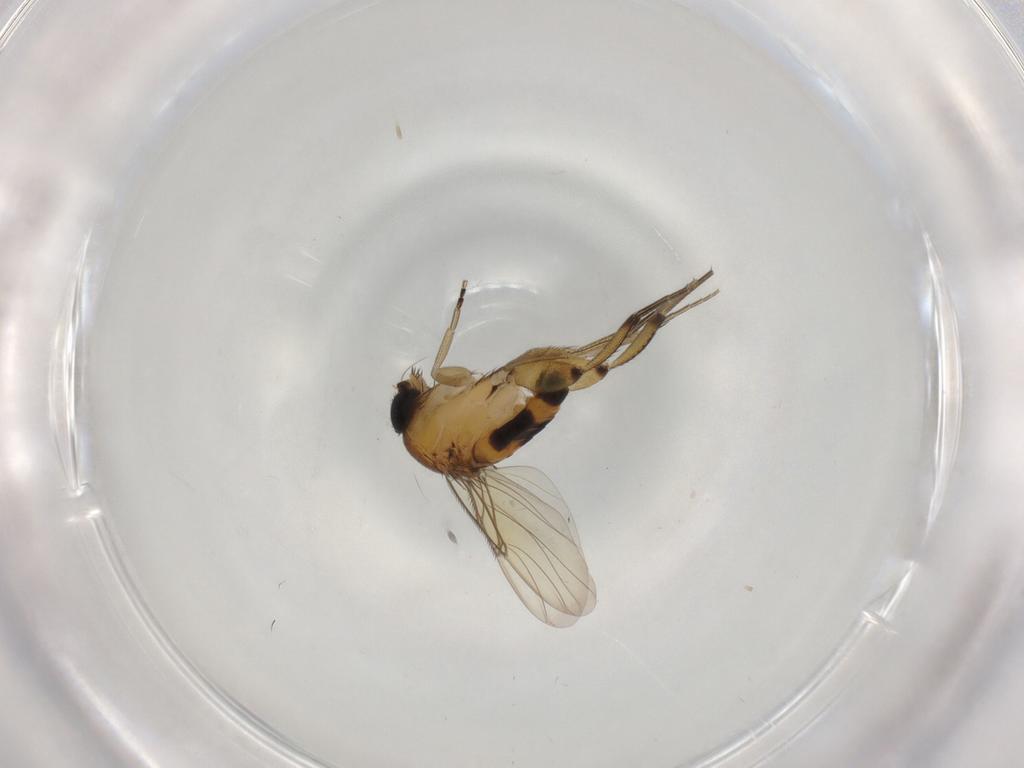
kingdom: Animalia
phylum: Arthropoda
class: Insecta
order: Diptera
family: Phoridae
